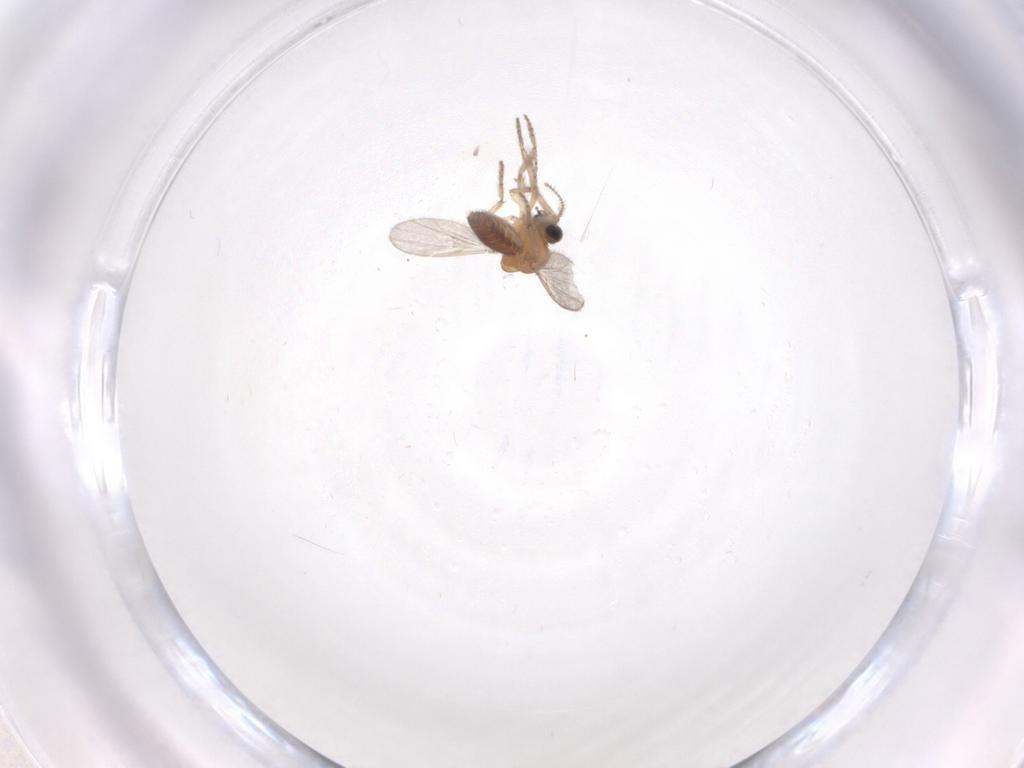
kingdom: Animalia
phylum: Arthropoda
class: Insecta
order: Diptera
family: Ceratopogonidae
